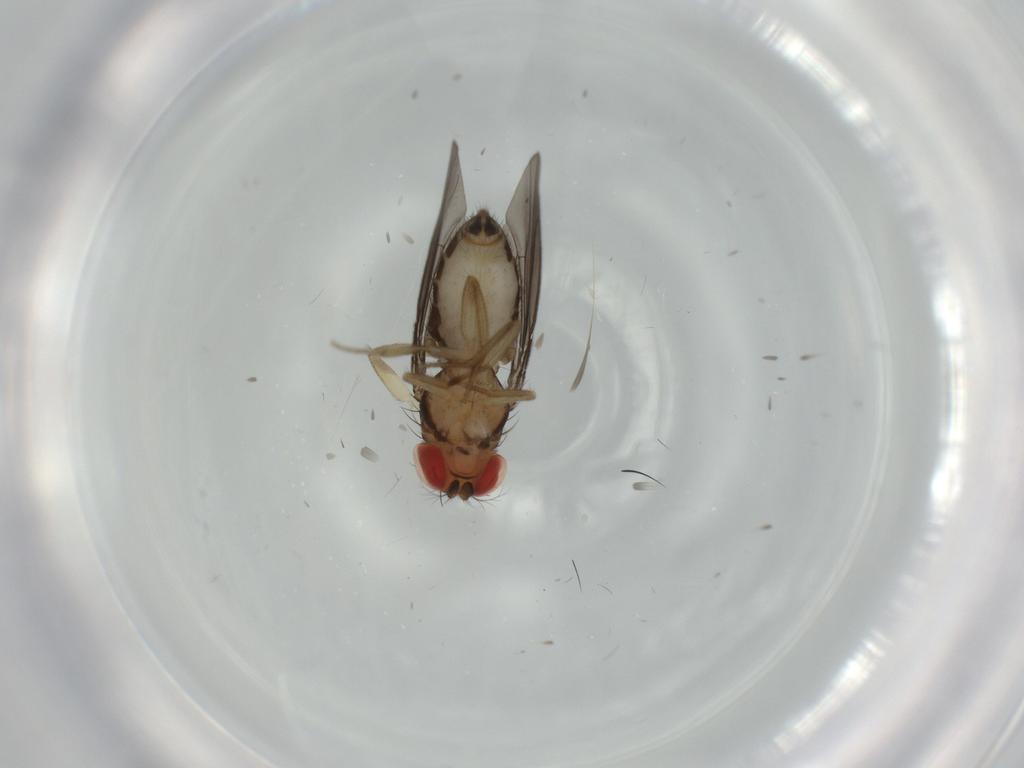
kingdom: Animalia
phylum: Arthropoda
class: Insecta
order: Diptera
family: Drosophilidae
